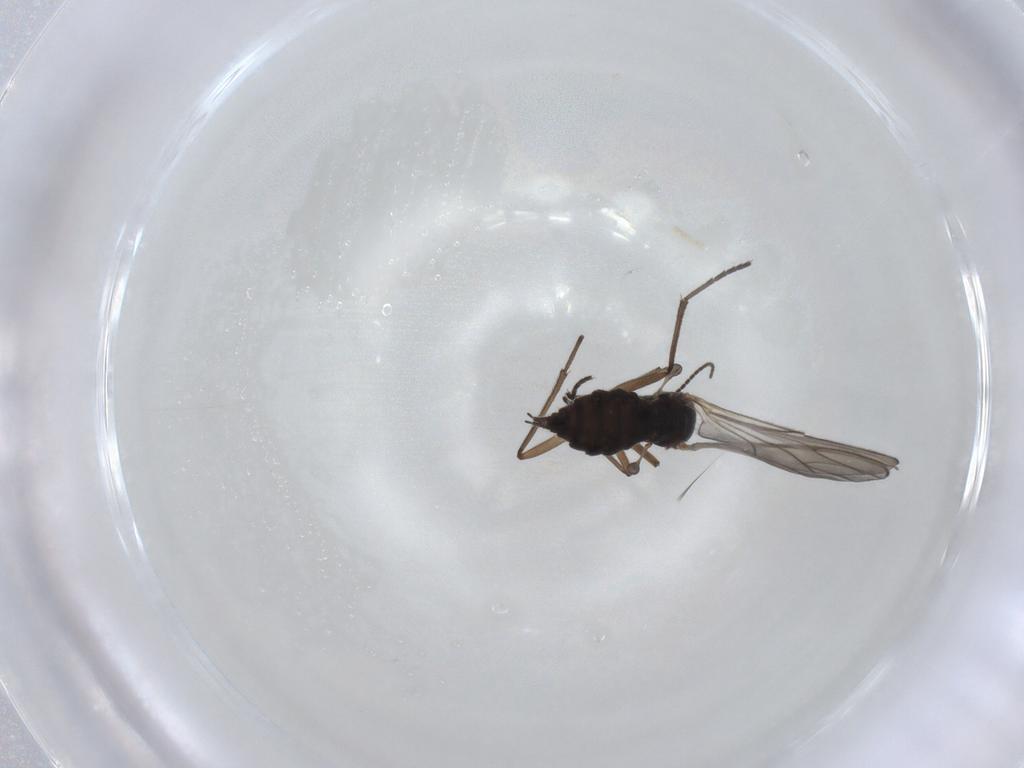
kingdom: Animalia
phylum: Arthropoda
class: Insecta
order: Diptera
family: Sciaridae
